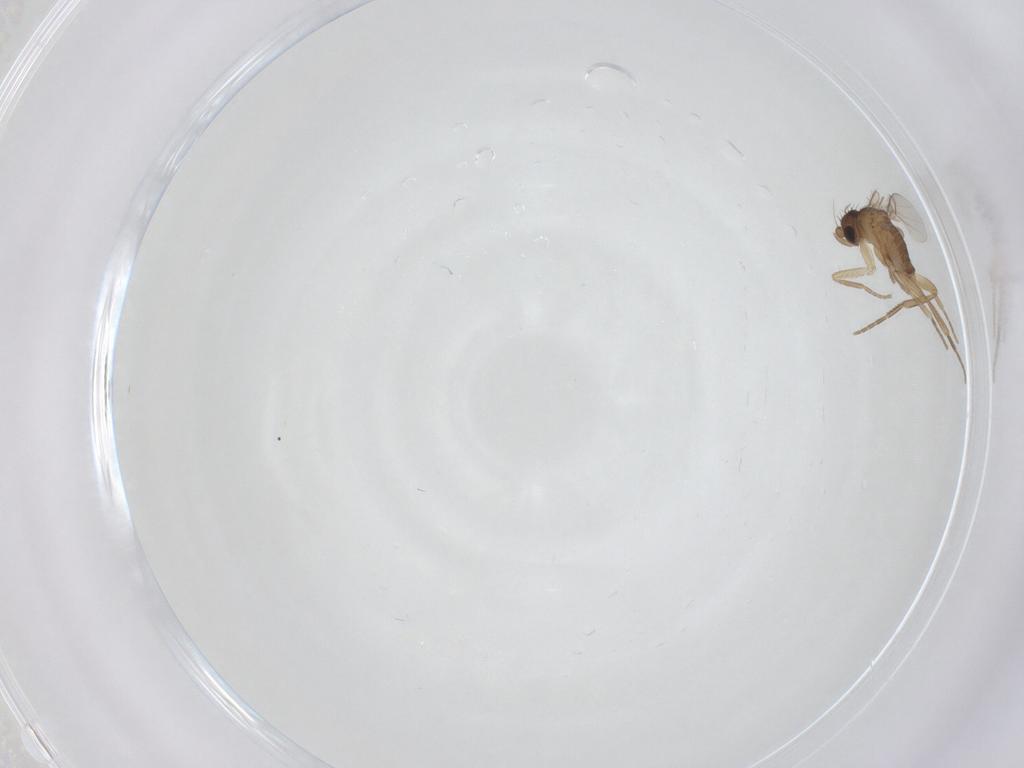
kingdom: Animalia
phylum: Arthropoda
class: Insecta
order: Diptera
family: Phoridae
